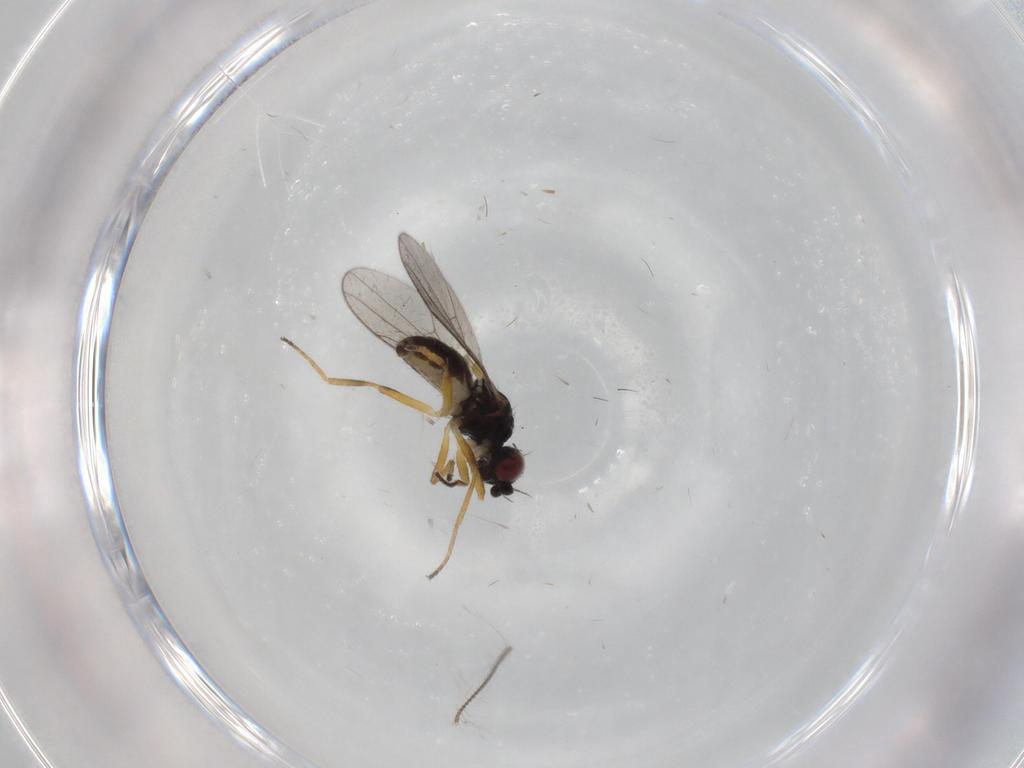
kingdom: Animalia
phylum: Arthropoda
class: Insecta
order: Diptera
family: Chloropidae
